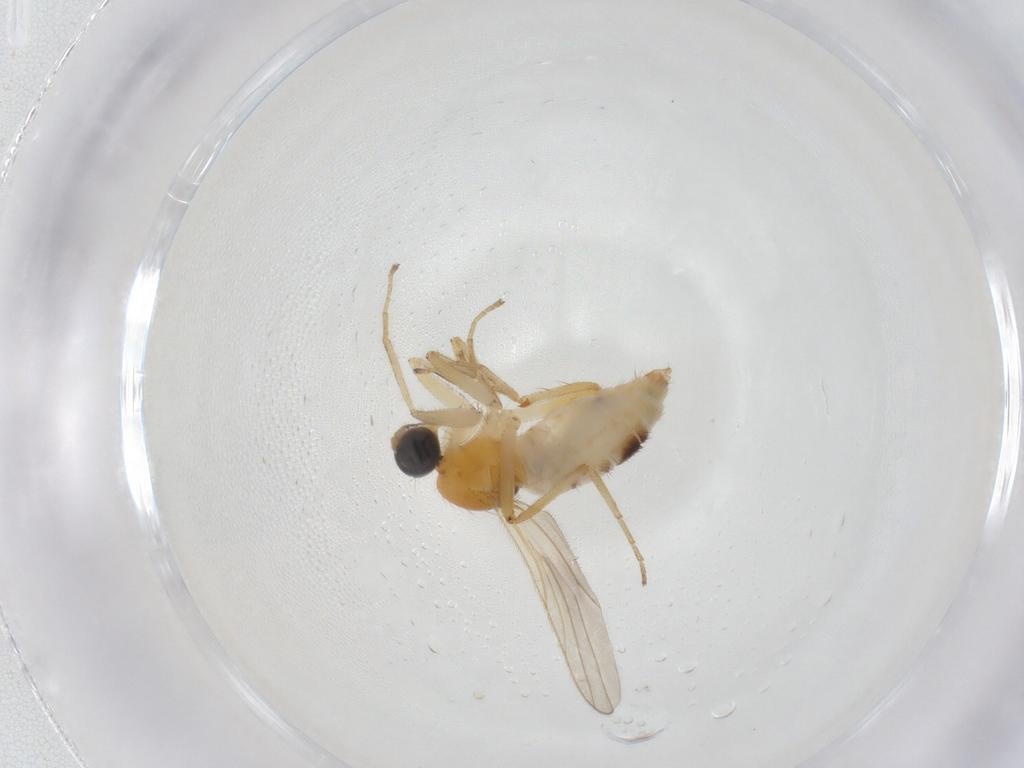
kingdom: Animalia
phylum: Arthropoda
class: Insecta
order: Diptera
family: Hybotidae
